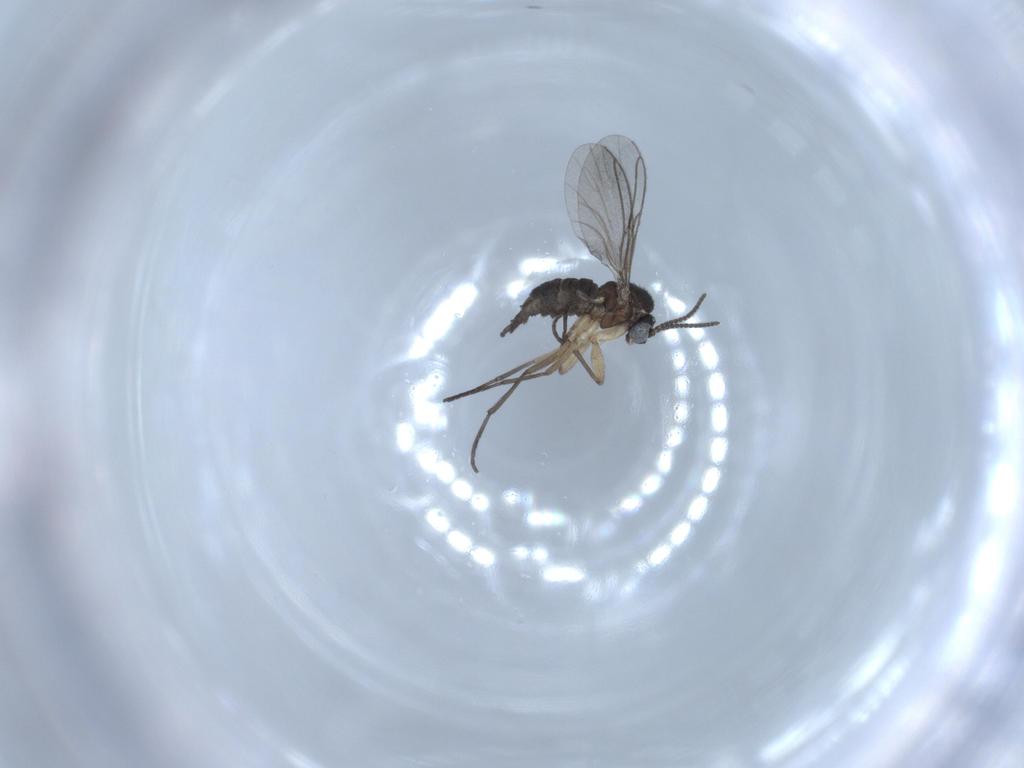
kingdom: Animalia
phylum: Arthropoda
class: Insecta
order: Diptera
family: Sciaridae
